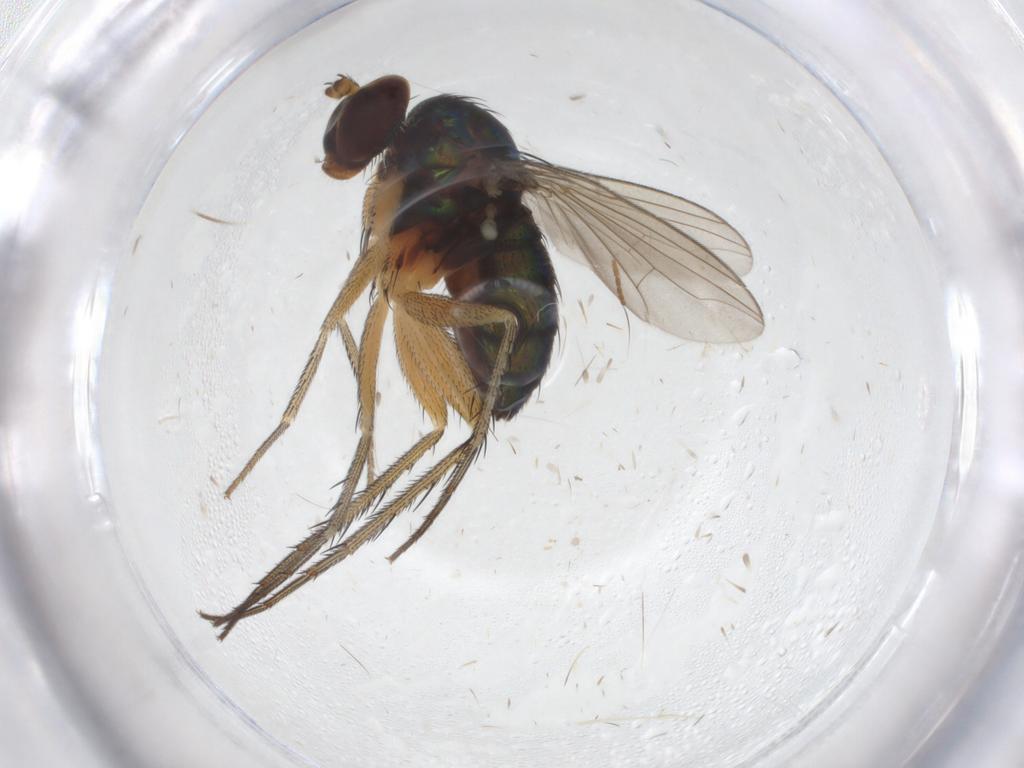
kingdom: Animalia
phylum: Arthropoda
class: Insecta
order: Diptera
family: Dolichopodidae
